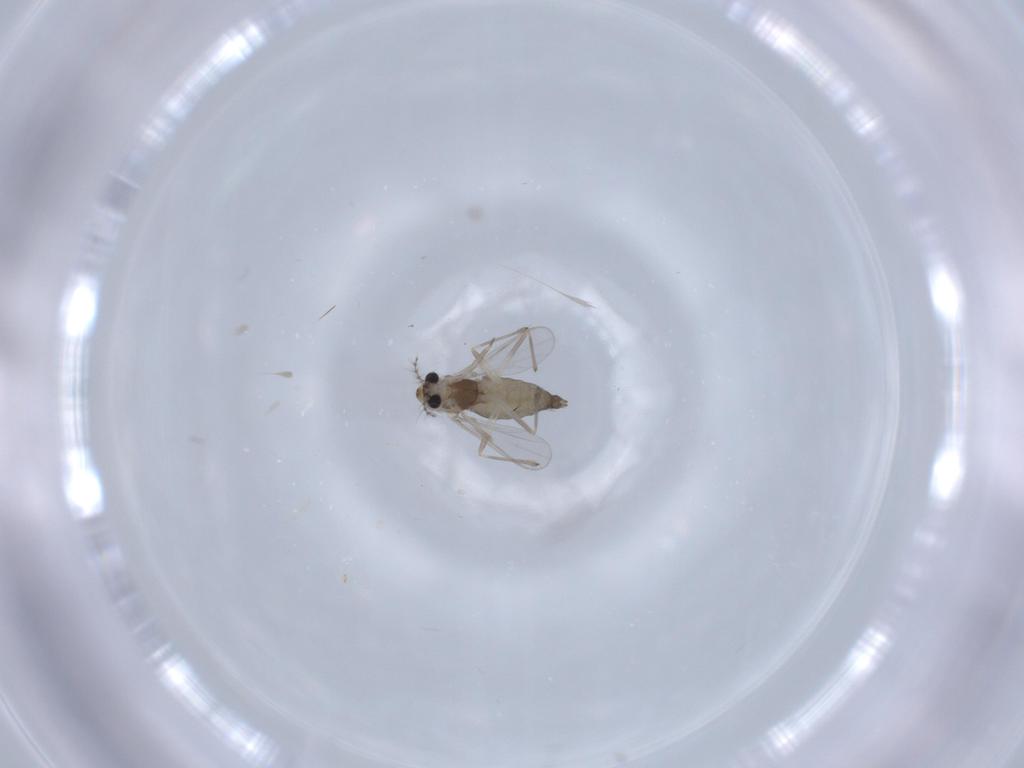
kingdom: Animalia
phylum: Arthropoda
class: Insecta
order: Diptera
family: Chironomidae
